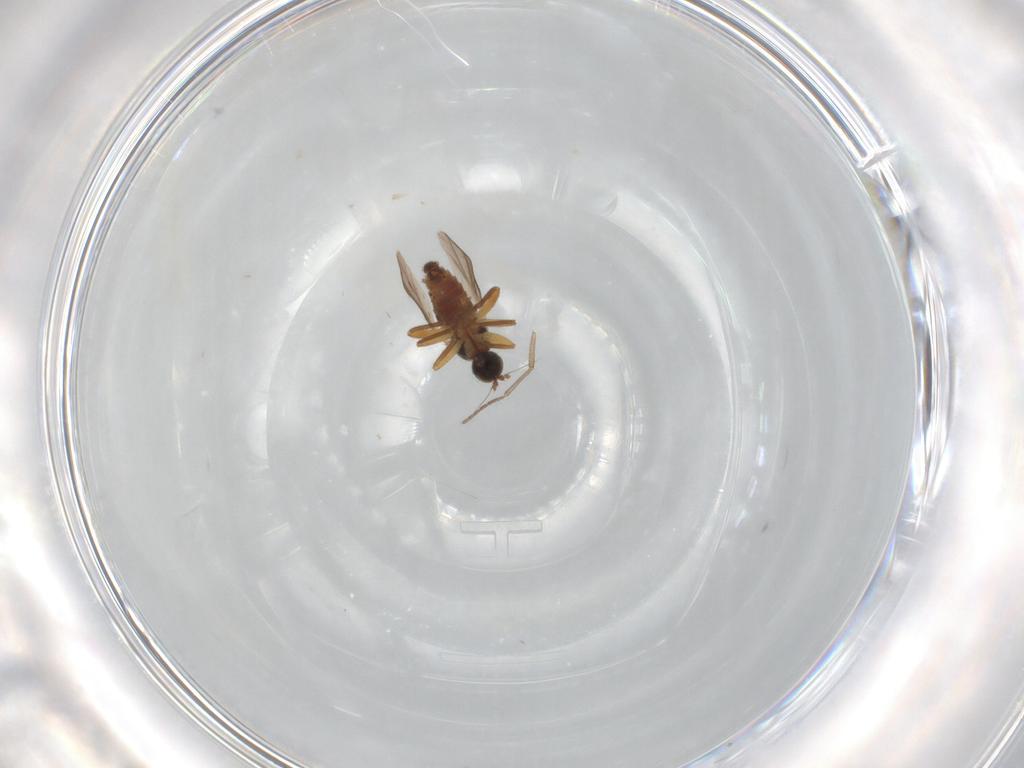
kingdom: Animalia
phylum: Arthropoda
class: Insecta
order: Diptera
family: Sciaridae
